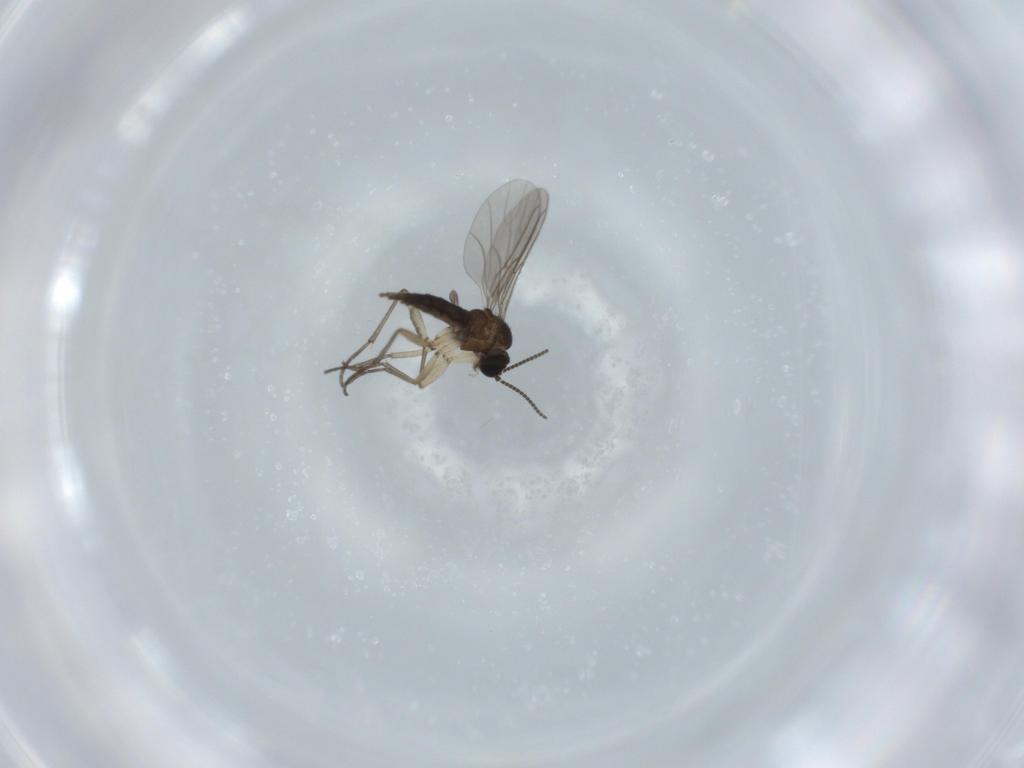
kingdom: Animalia
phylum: Arthropoda
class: Insecta
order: Diptera
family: Sciaridae
